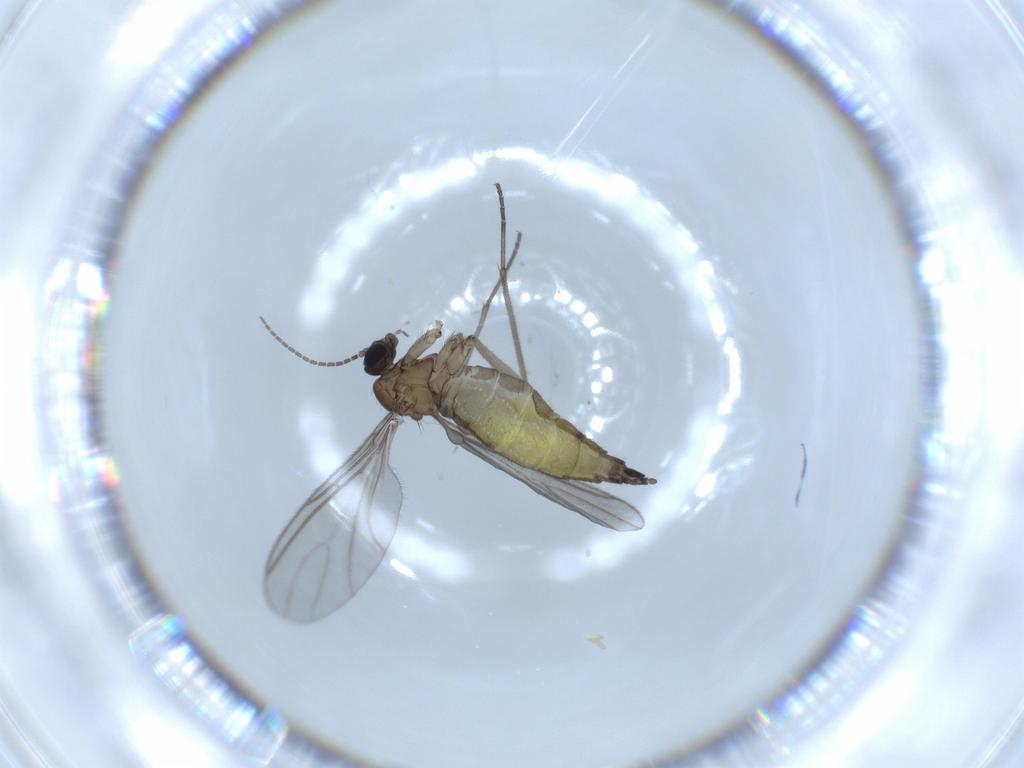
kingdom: Animalia
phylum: Arthropoda
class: Insecta
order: Diptera
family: Sciaridae
